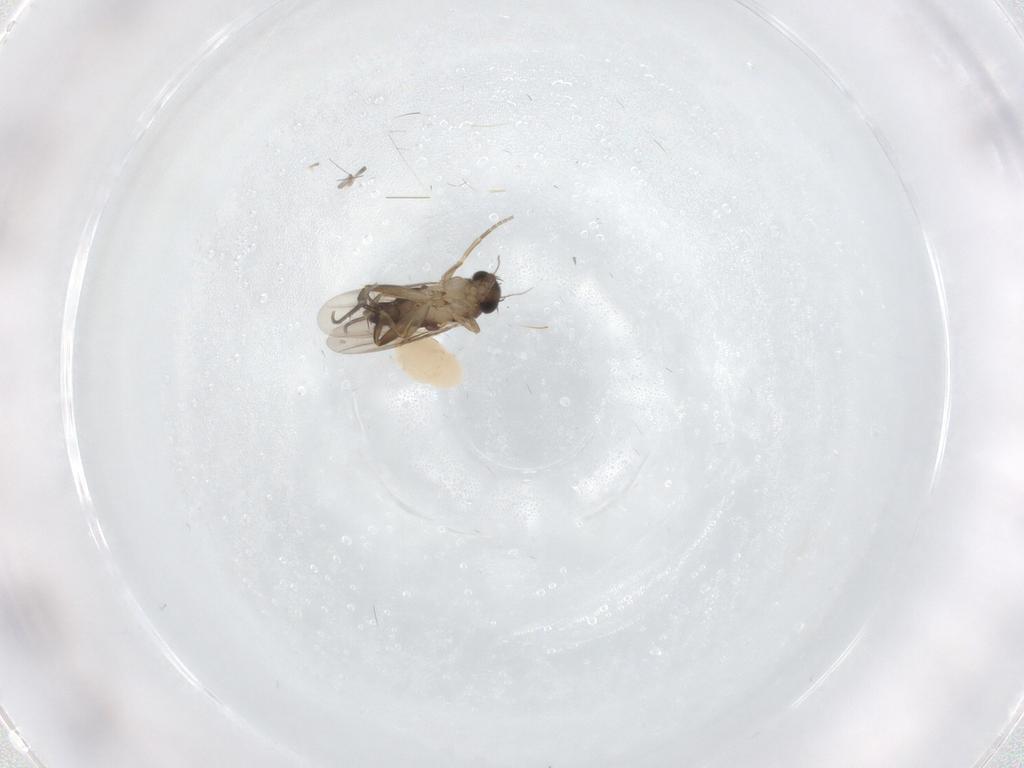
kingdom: Animalia
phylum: Arthropoda
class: Insecta
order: Diptera
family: Phoridae
